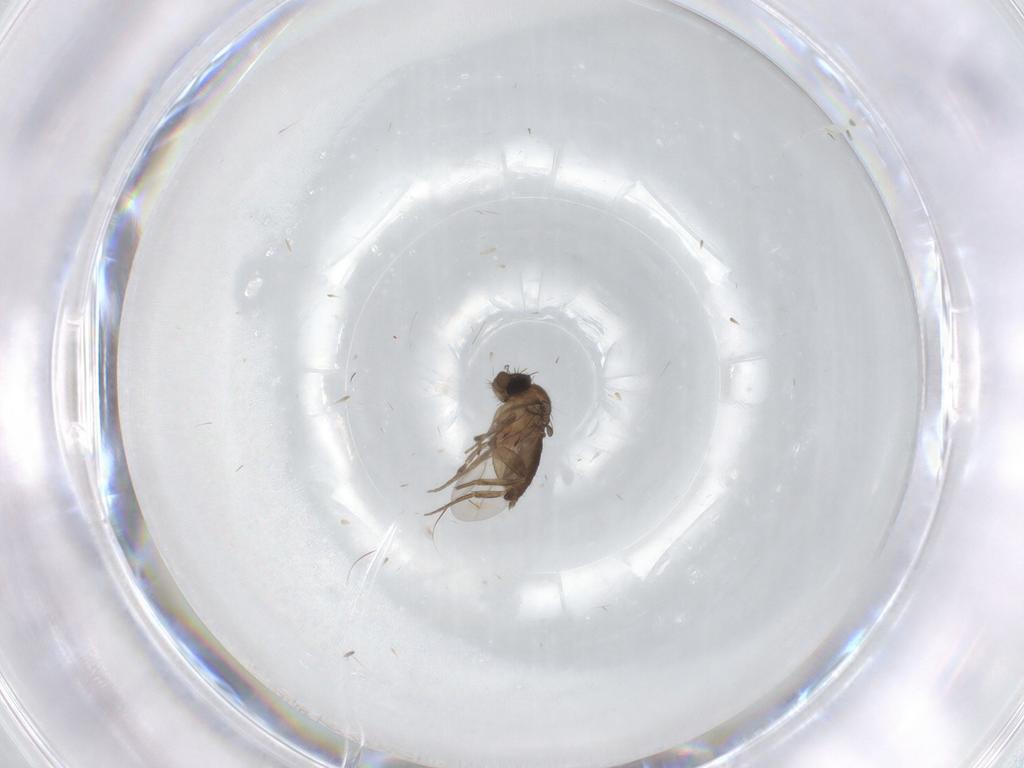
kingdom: Animalia
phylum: Arthropoda
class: Insecta
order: Diptera
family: Phoridae
